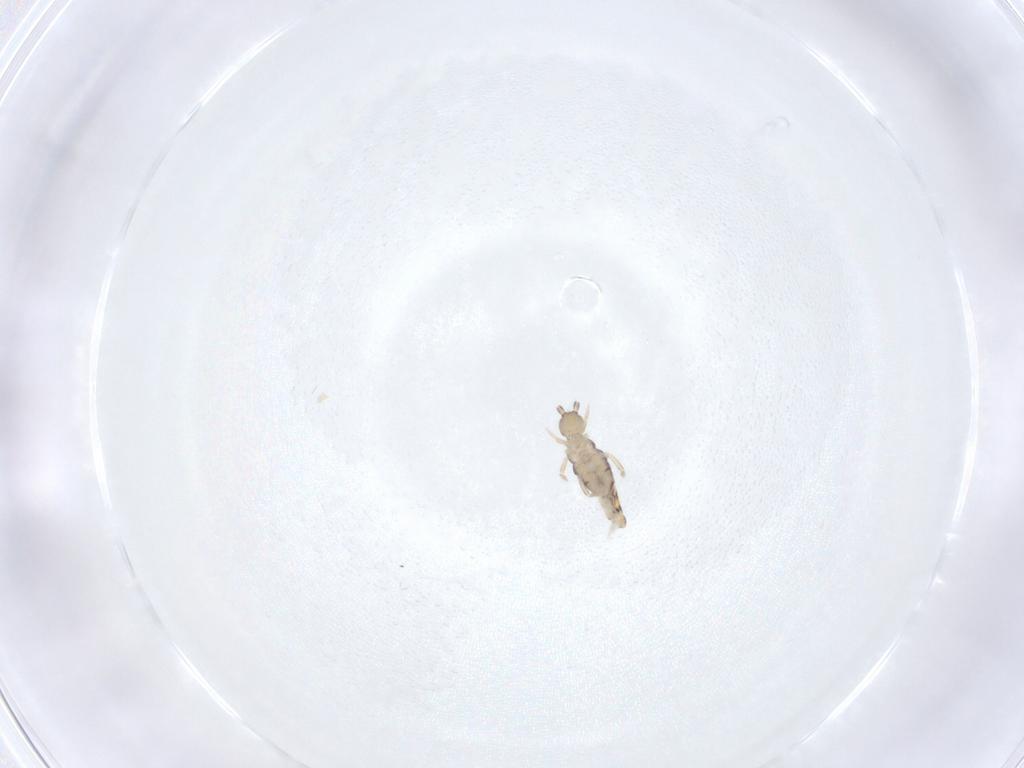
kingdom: Animalia
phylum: Arthropoda
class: Collembola
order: Entomobryomorpha
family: Entomobryidae
